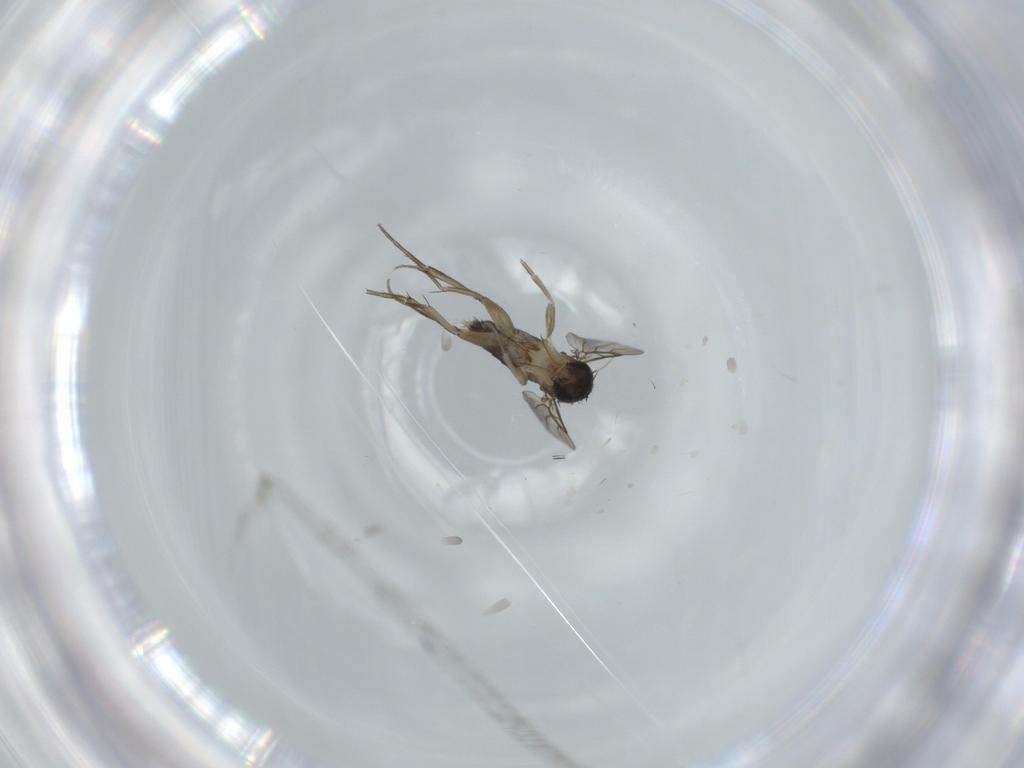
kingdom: Animalia
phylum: Arthropoda
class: Insecta
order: Diptera
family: Phoridae
